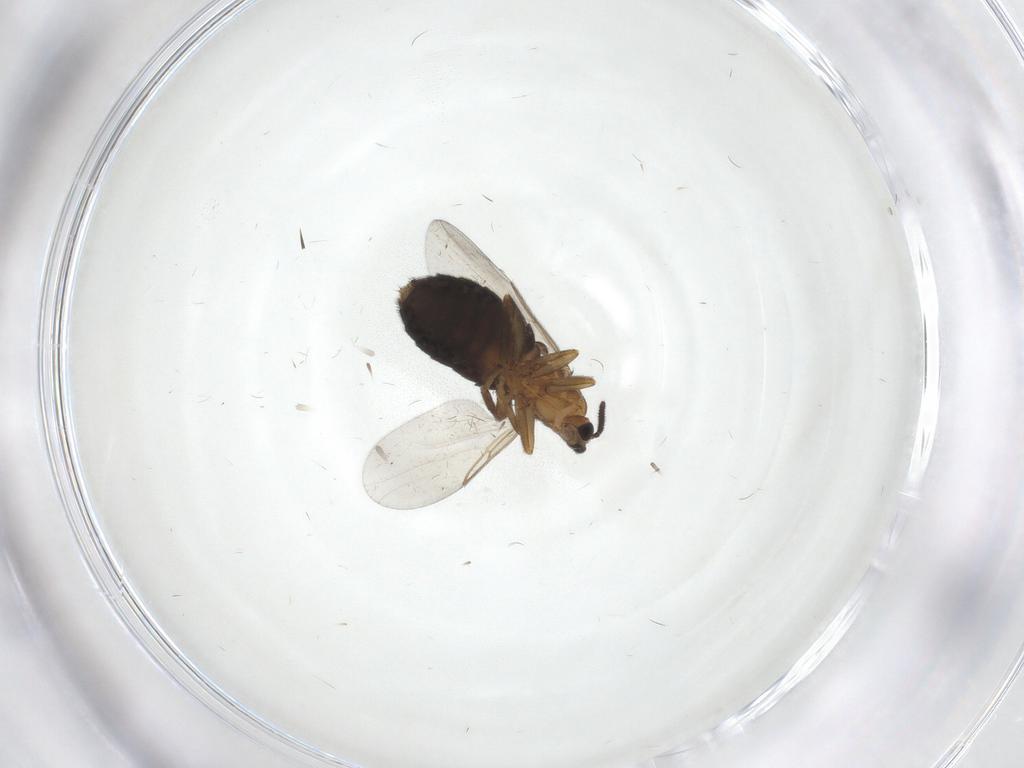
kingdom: Animalia
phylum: Arthropoda
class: Insecta
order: Diptera
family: Scatopsidae
